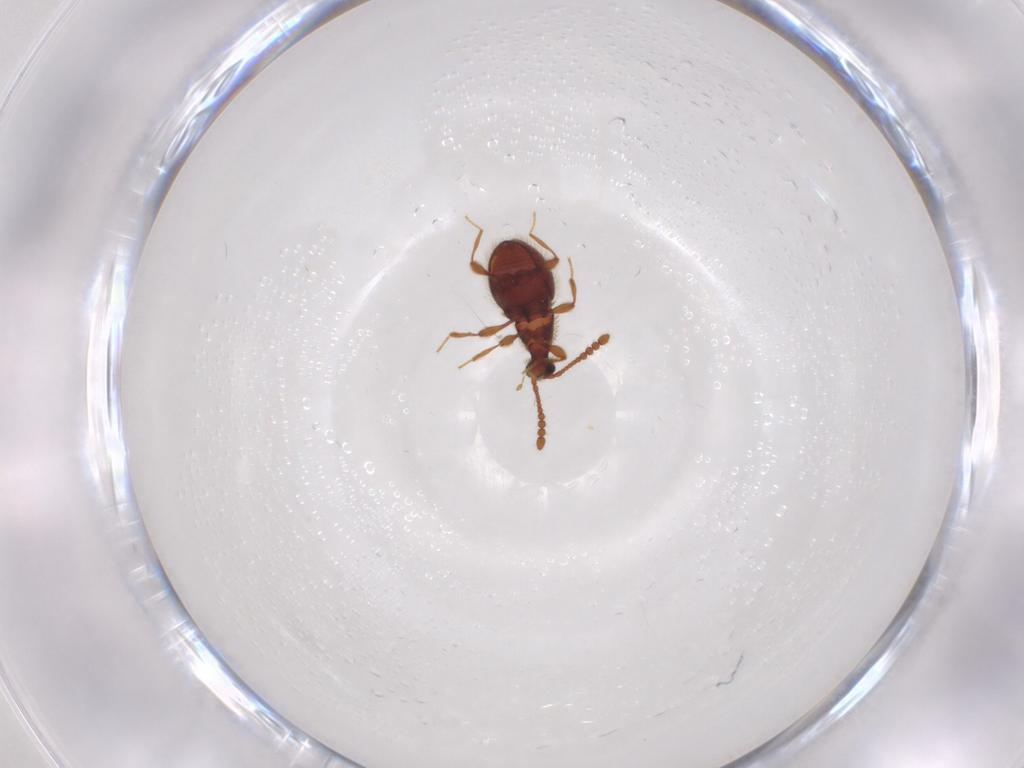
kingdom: Animalia
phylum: Arthropoda
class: Insecta
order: Coleoptera
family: Staphylinidae
